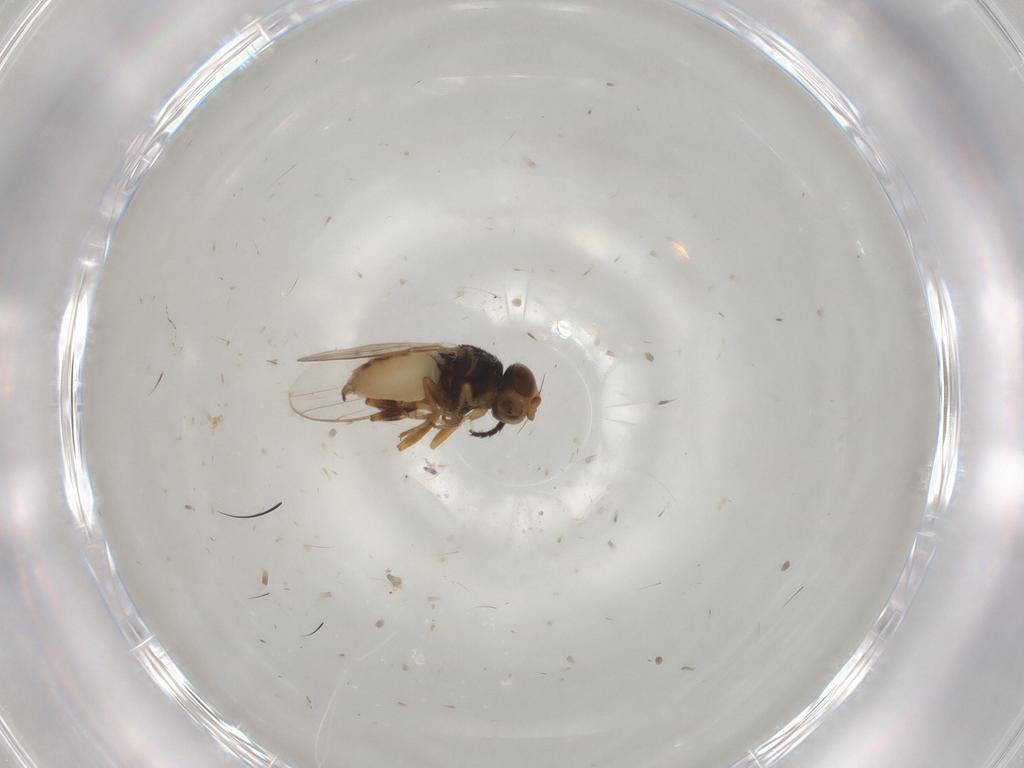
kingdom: Animalia
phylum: Arthropoda
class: Insecta
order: Diptera
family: Chloropidae
